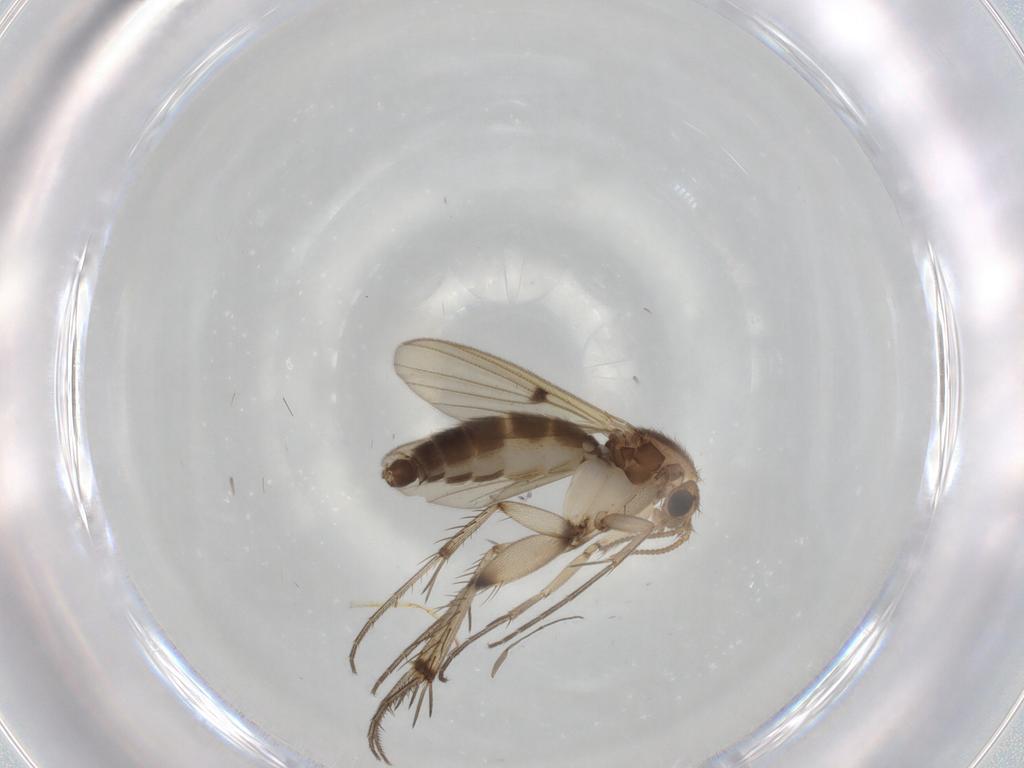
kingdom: Animalia
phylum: Arthropoda
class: Insecta
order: Diptera
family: Mycetophilidae
